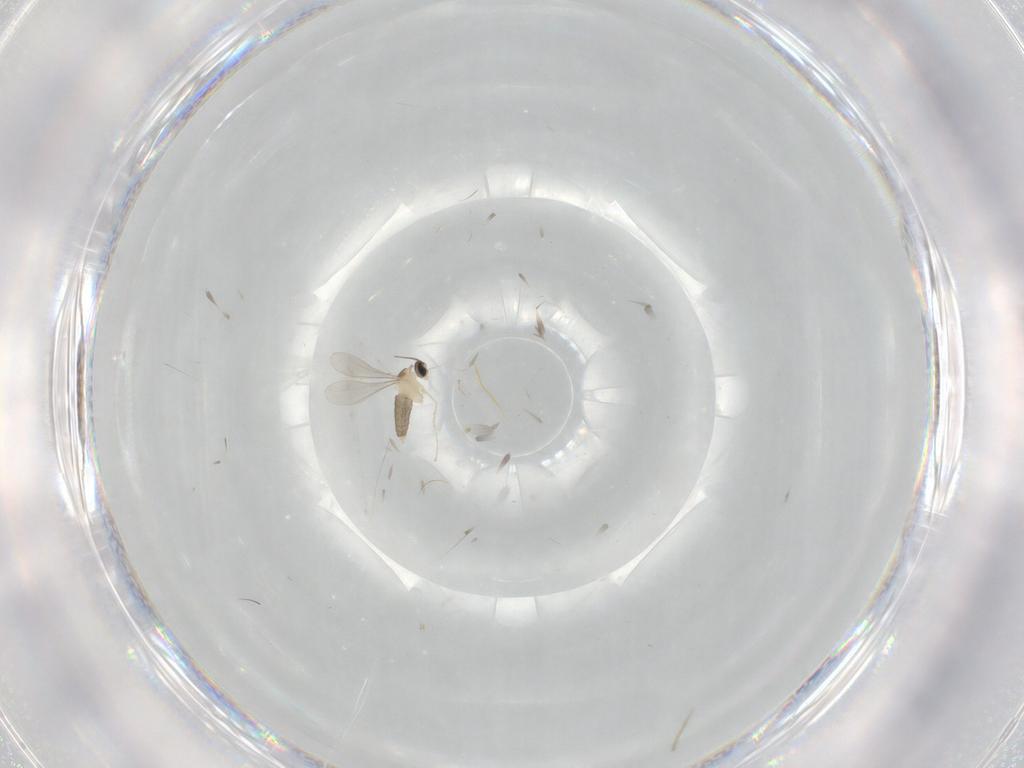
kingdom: Animalia
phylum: Arthropoda
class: Insecta
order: Diptera
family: Cecidomyiidae
